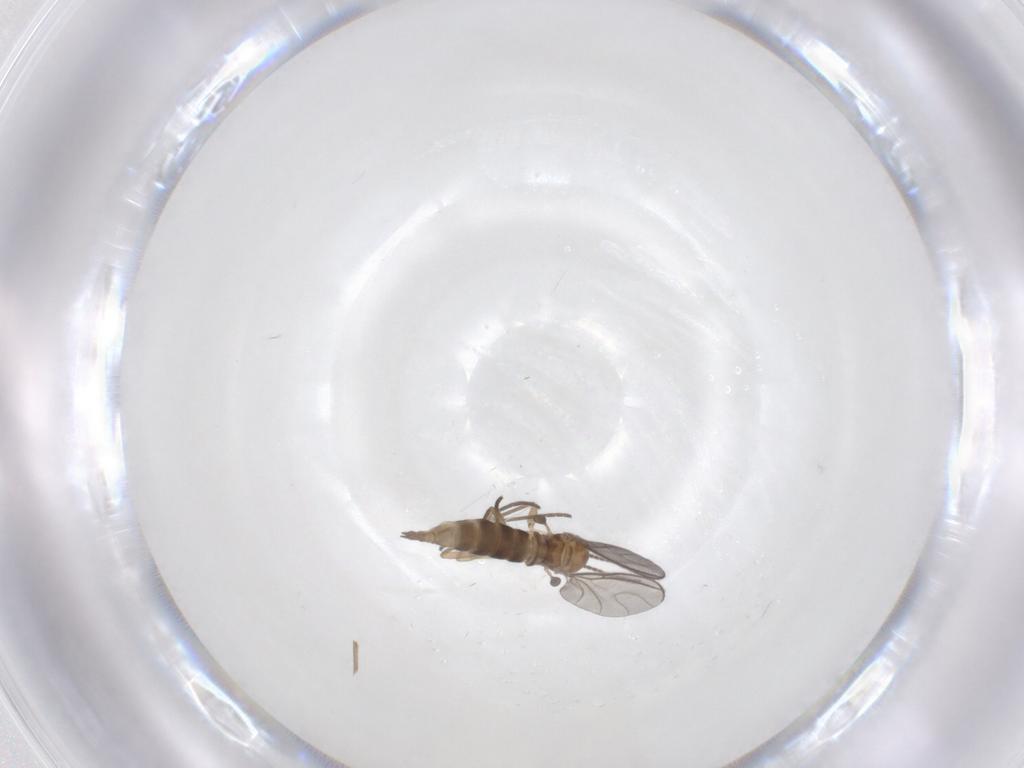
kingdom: Animalia
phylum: Arthropoda
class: Insecta
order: Diptera
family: Sciaridae
